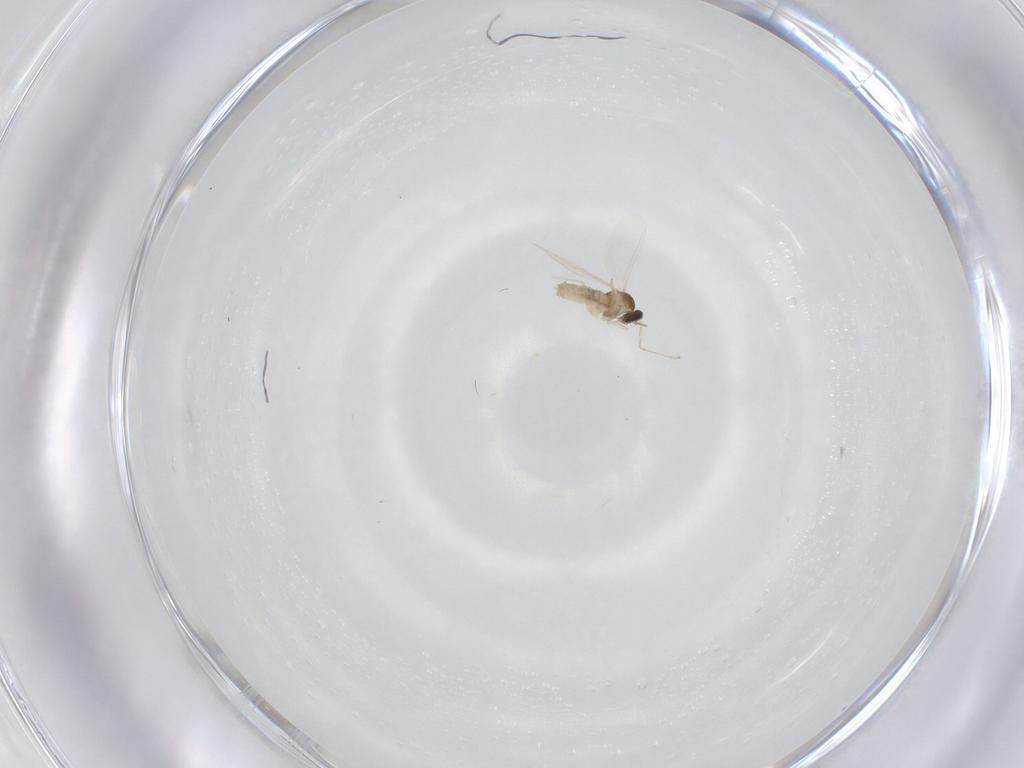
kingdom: Animalia
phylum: Arthropoda
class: Insecta
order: Diptera
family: Cecidomyiidae
